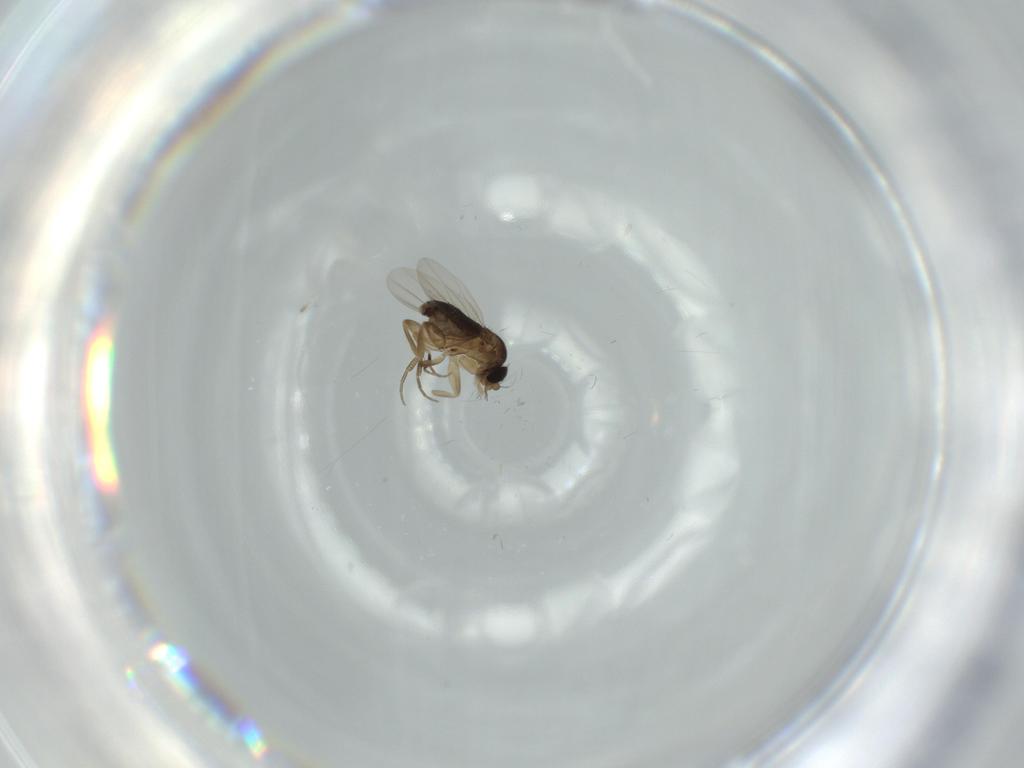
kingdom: Animalia
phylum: Arthropoda
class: Insecta
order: Diptera
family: Phoridae
